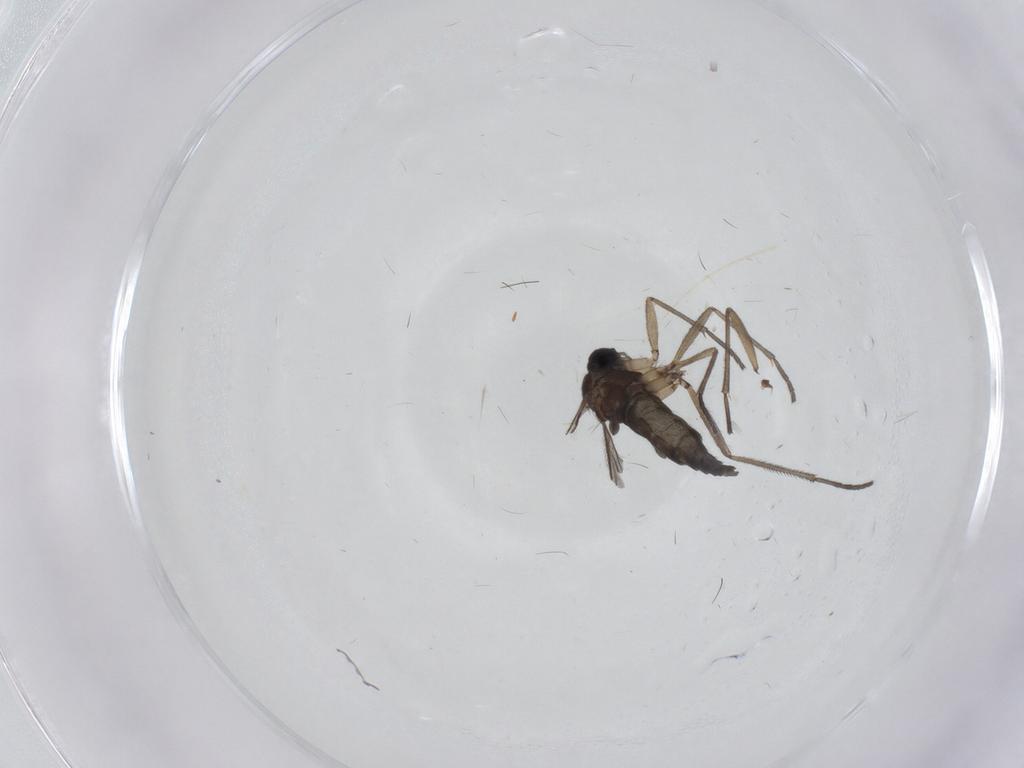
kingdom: Animalia
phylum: Arthropoda
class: Insecta
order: Diptera
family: Sciaridae
